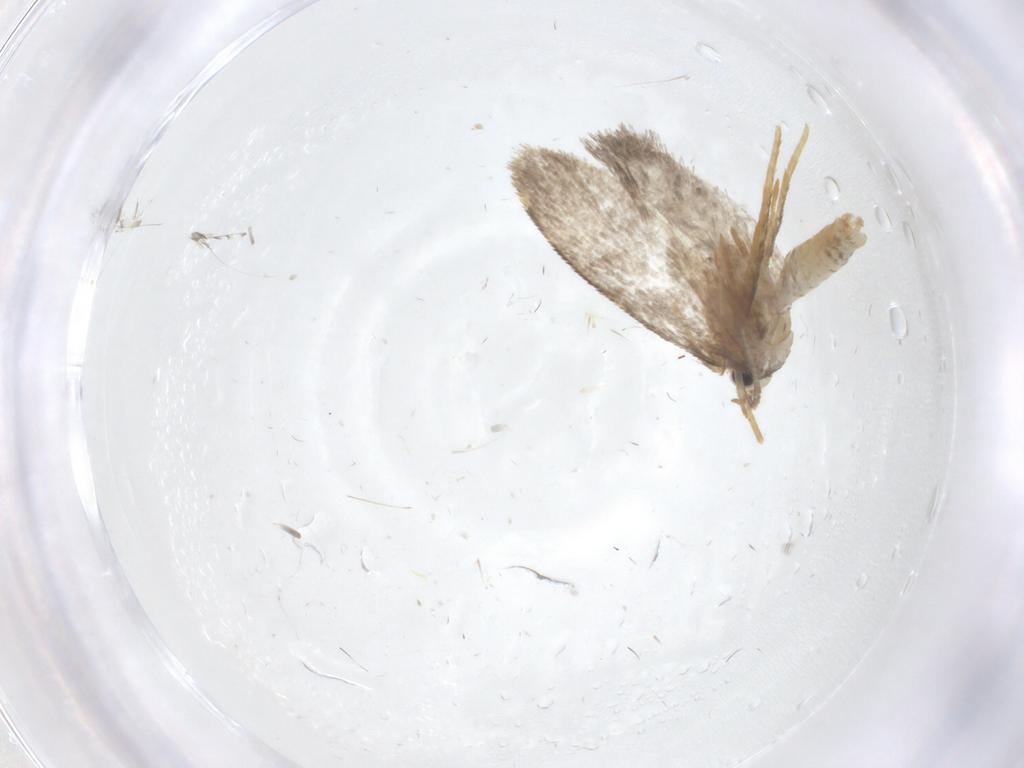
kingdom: Animalia
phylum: Arthropoda
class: Insecta
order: Lepidoptera
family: Psychidae
